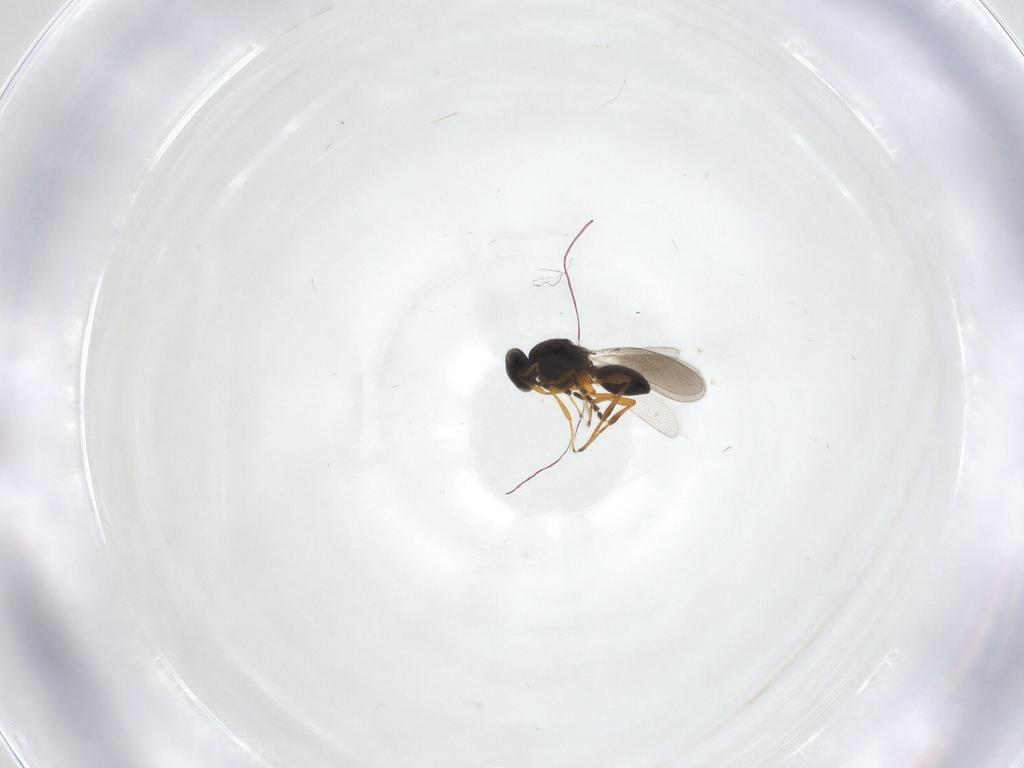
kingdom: Animalia
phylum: Arthropoda
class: Insecta
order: Hymenoptera
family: Platygastridae
